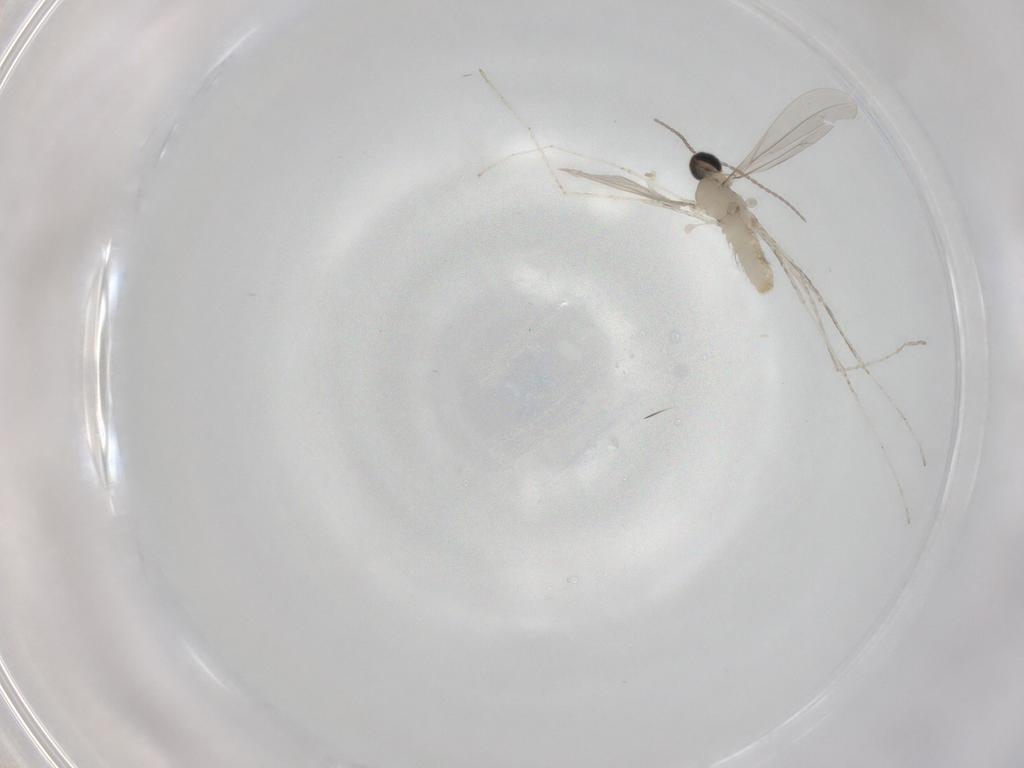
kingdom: Animalia
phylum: Arthropoda
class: Insecta
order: Diptera
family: Cecidomyiidae
